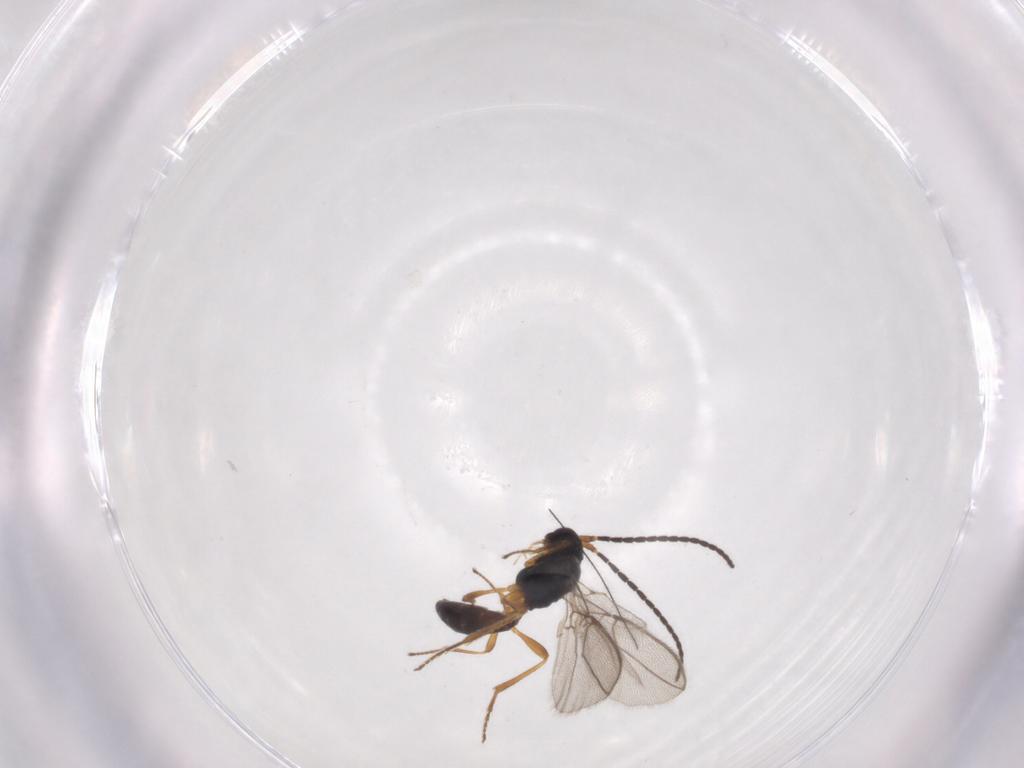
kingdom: Animalia
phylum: Arthropoda
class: Insecta
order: Hymenoptera
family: Braconidae
